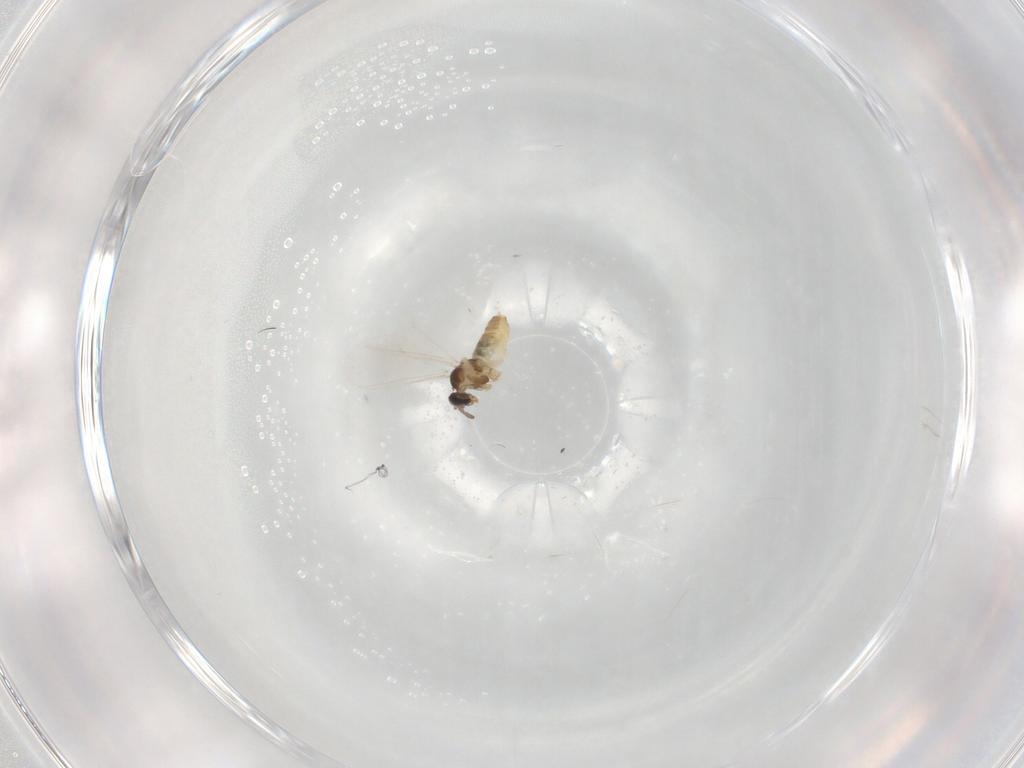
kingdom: Animalia
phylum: Arthropoda
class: Insecta
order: Diptera
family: Cecidomyiidae
